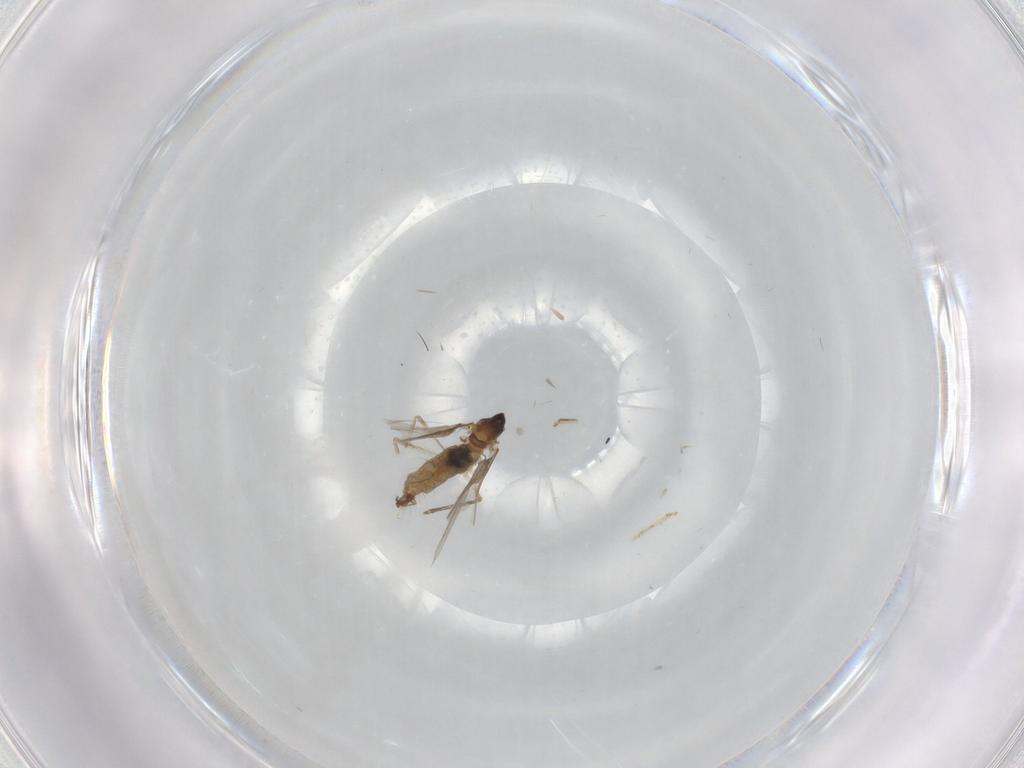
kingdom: Animalia
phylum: Arthropoda
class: Insecta
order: Diptera
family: Cecidomyiidae
